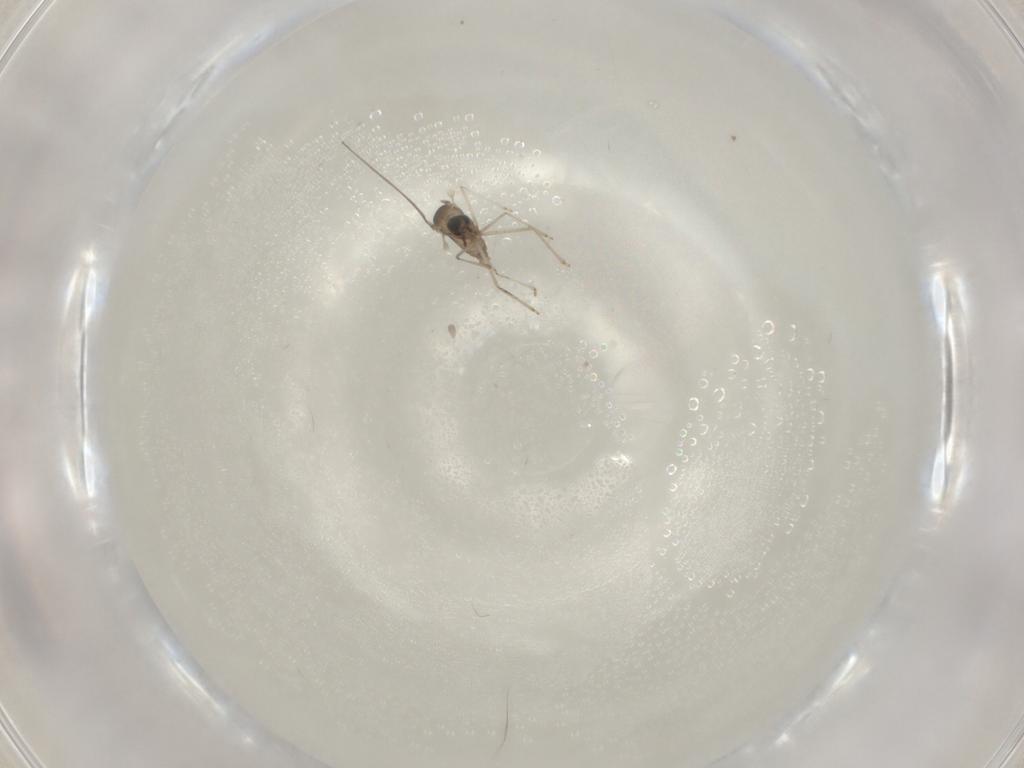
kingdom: Animalia
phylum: Arthropoda
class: Insecta
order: Diptera
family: Cecidomyiidae
